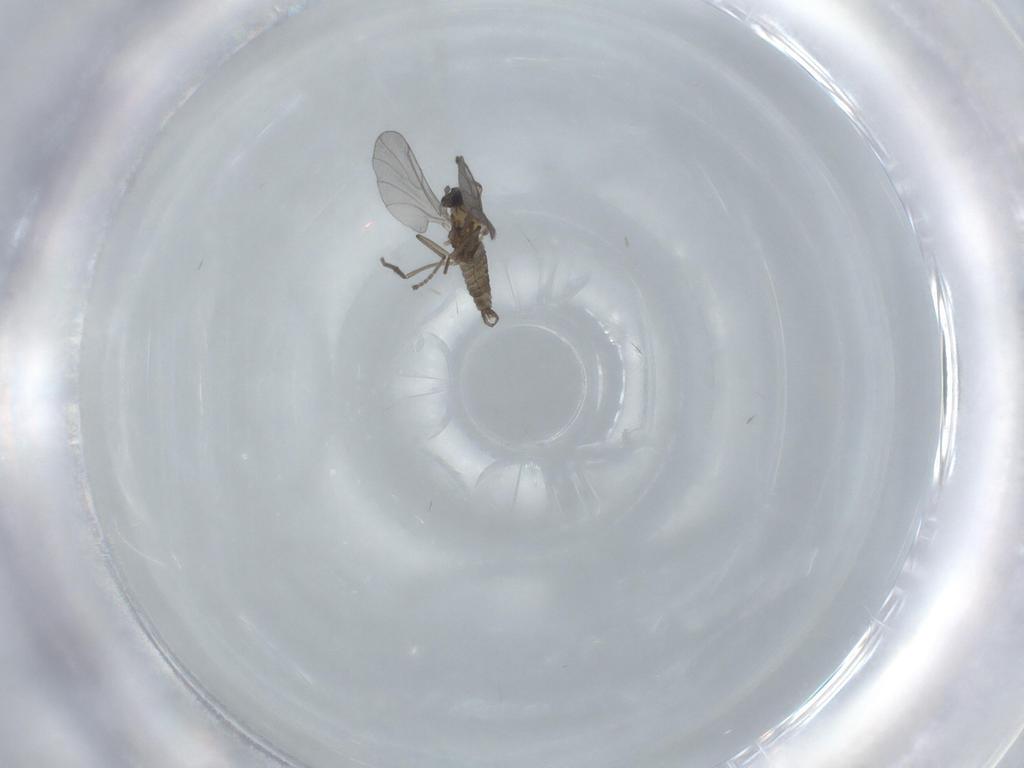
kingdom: Animalia
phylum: Arthropoda
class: Insecta
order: Diptera
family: Cecidomyiidae
